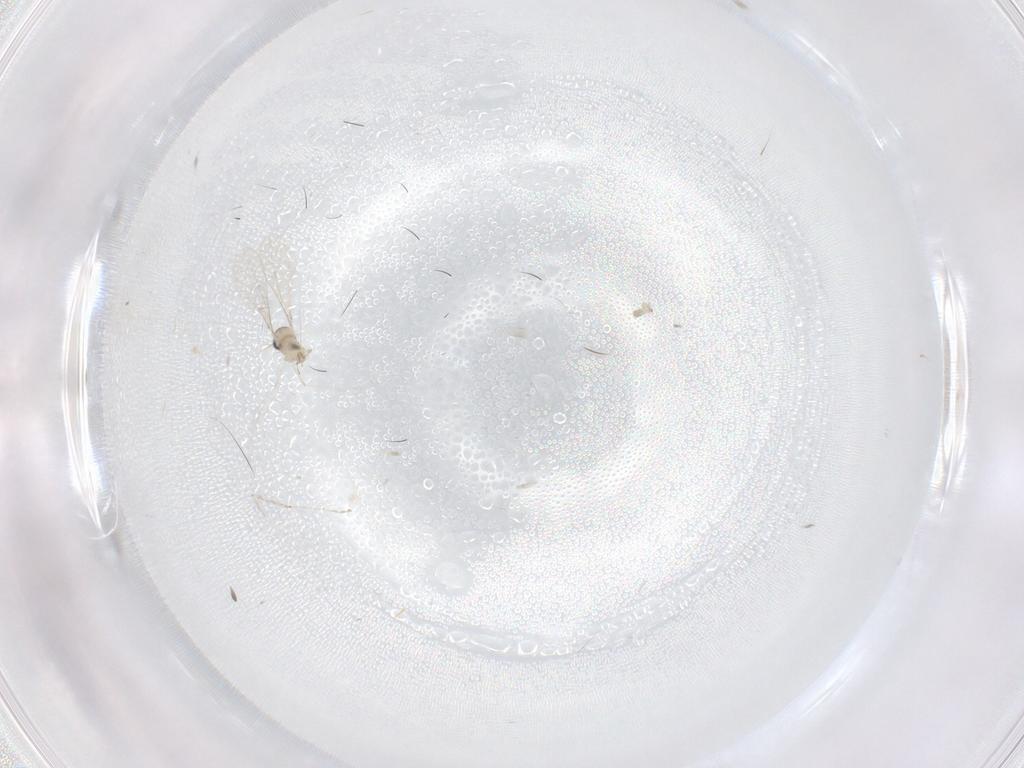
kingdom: Animalia
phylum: Arthropoda
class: Insecta
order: Diptera
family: Cecidomyiidae
